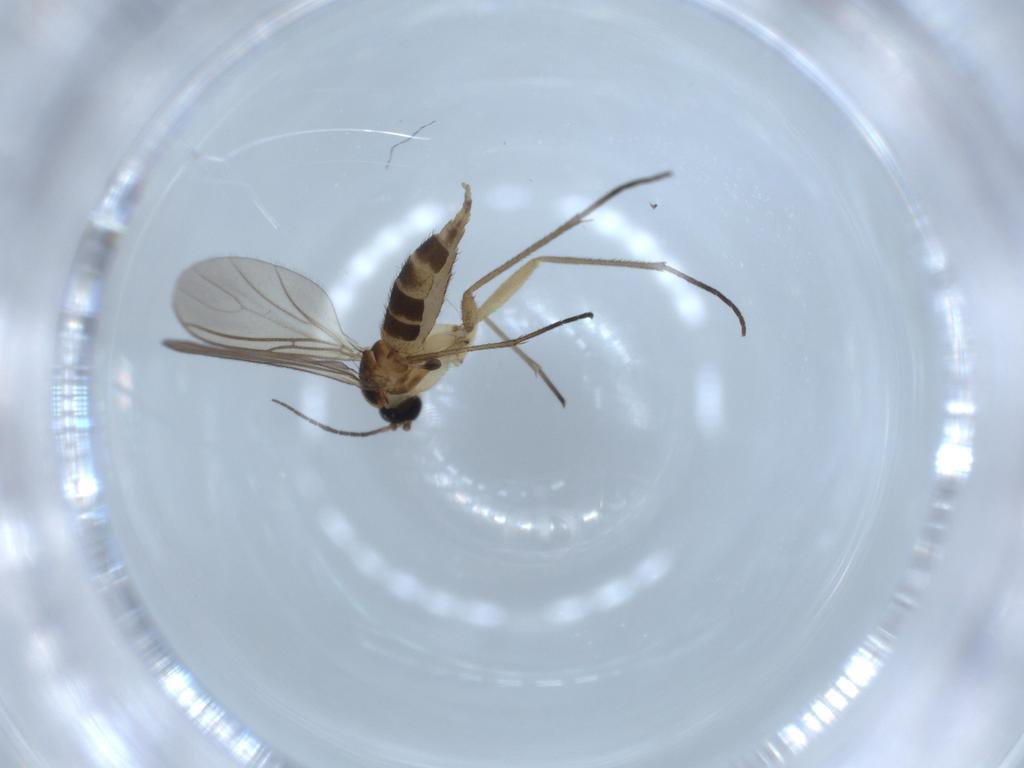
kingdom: Animalia
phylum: Arthropoda
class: Insecta
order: Diptera
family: Sciaridae
